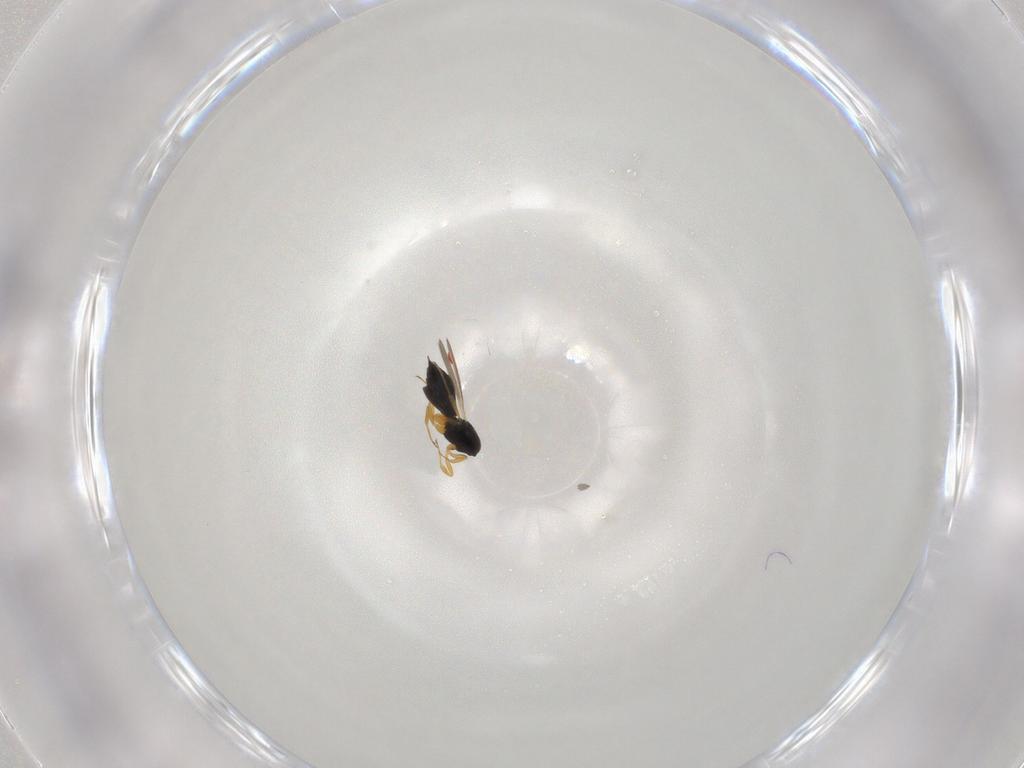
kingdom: Animalia
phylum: Arthropoda
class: Insecta
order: Hymenoptera
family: Scelionidae
